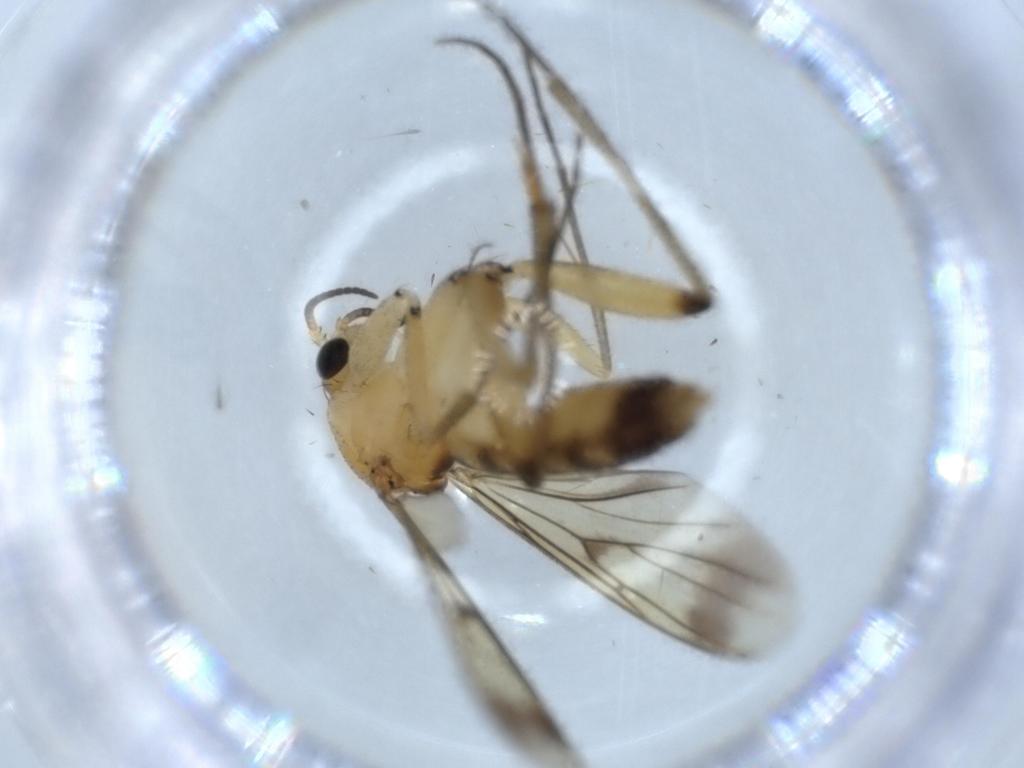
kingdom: Animalia
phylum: Arthropoda
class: Insecta
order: Diptera
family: Mycetophilidae
